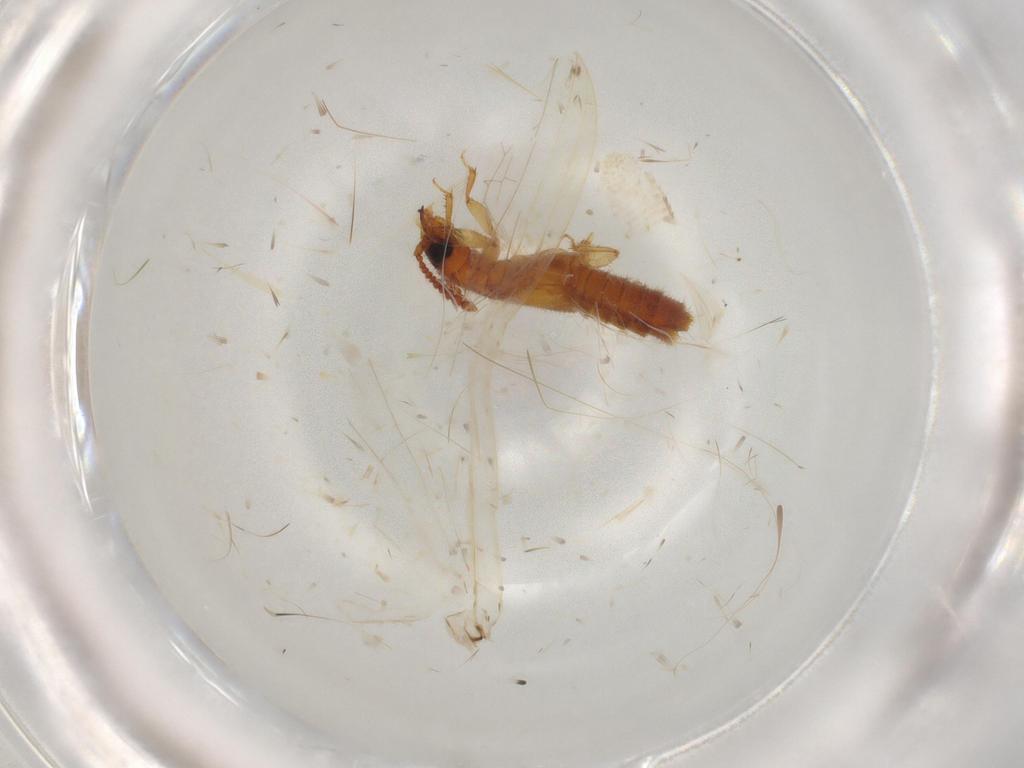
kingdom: Animalia
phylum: Arthropoda
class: Insecta
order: Coleoptera
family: Staphylinidae
